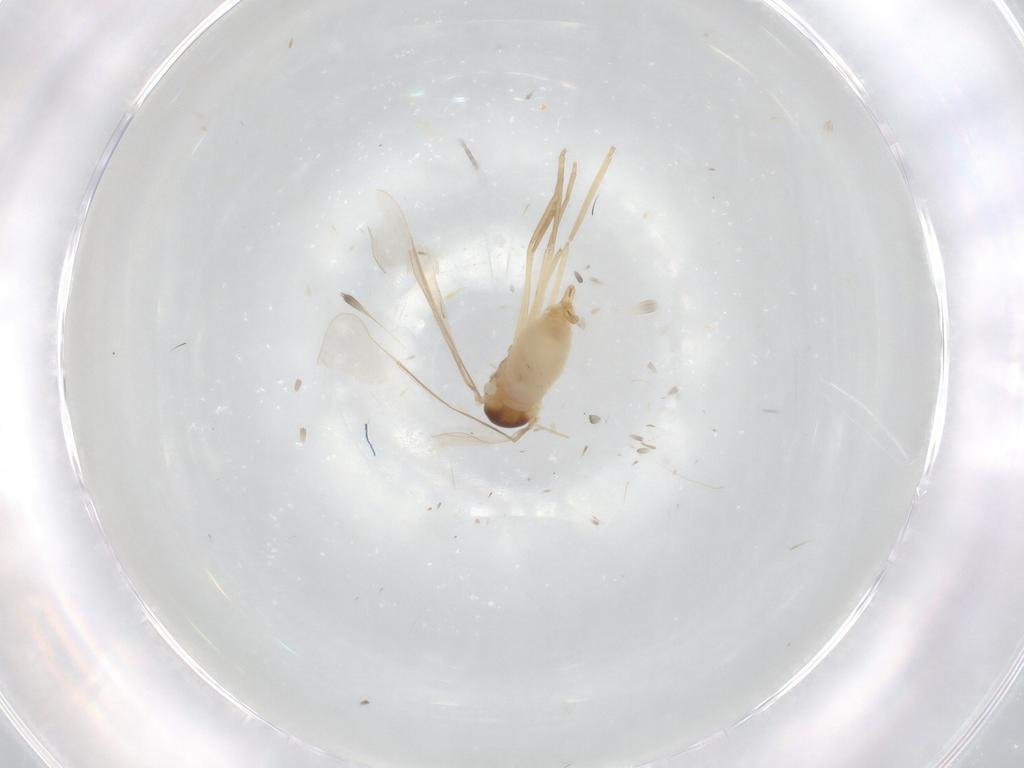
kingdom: Animalia
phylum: Arthropoda
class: Insecta
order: Diptera
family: Cecidomyiidae
